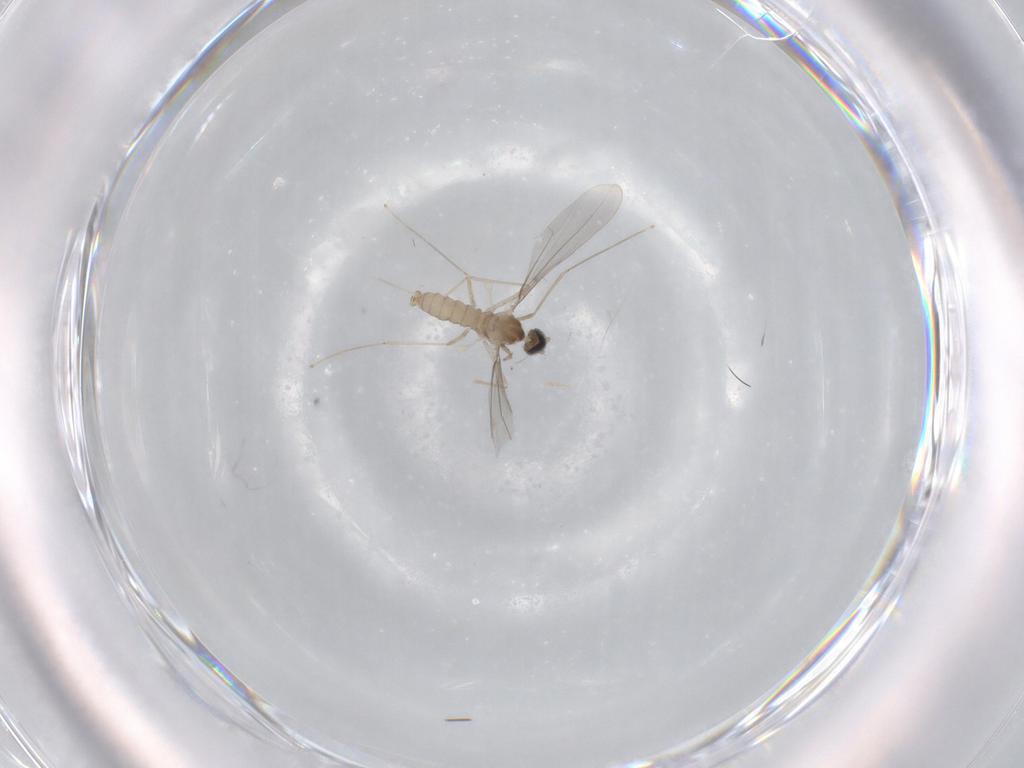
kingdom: Animalia
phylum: Arthropoda
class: Insecta
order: Diptera
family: Cecidomyiidae
